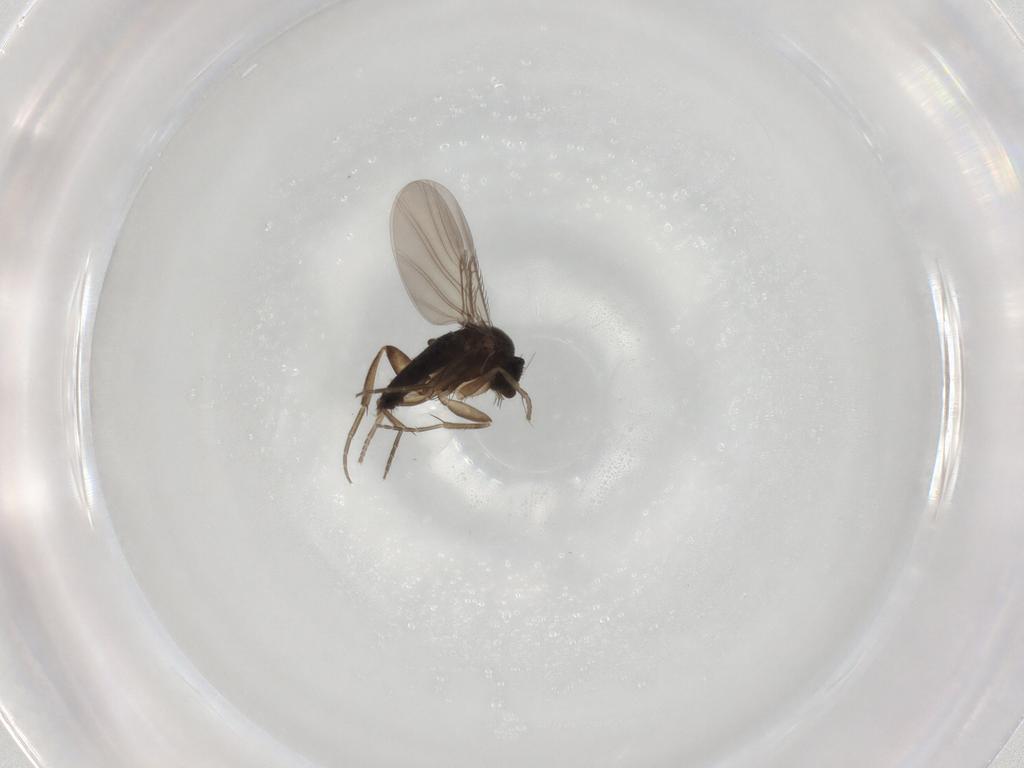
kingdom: Animalia
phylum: Arthropoda
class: Insecta
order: Diptera
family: Phoridae
